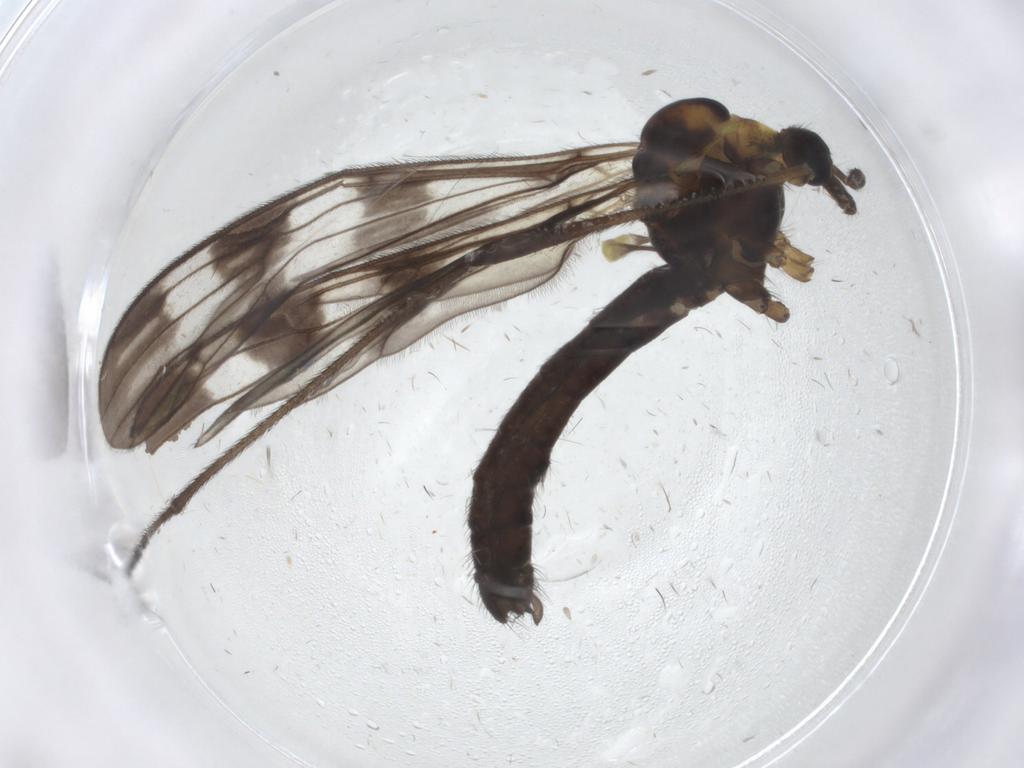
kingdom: Animalia
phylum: Arthropoda
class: Insecta
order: Diptera
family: Limoniidae
